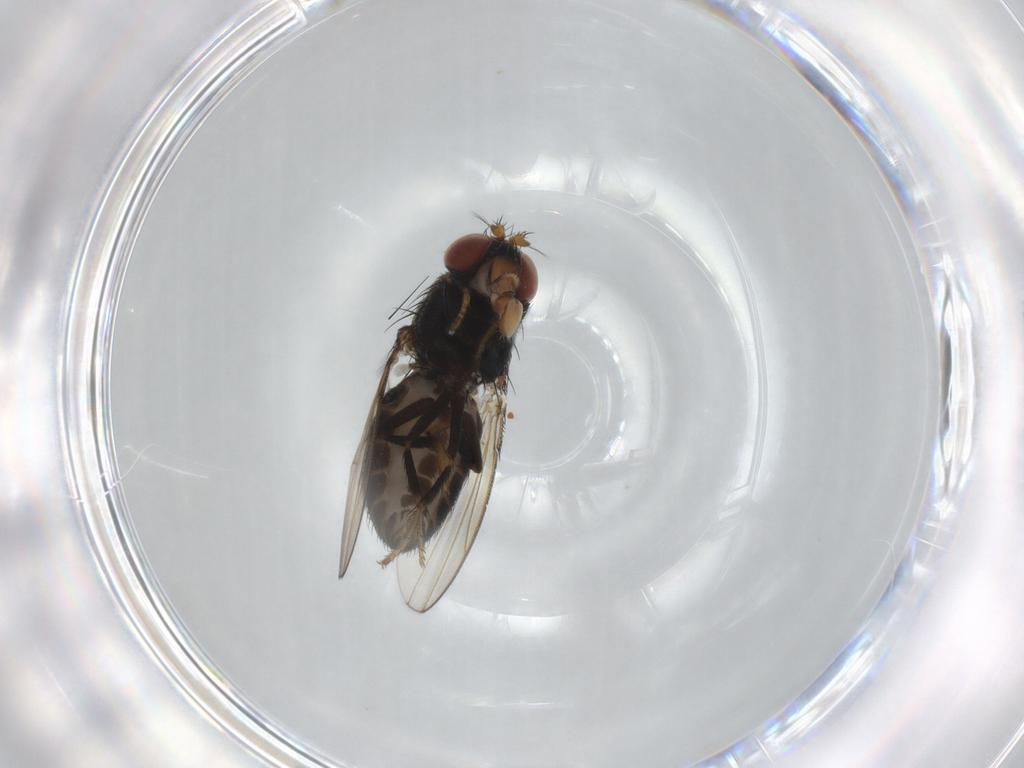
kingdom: Animalia
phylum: Arthropoda
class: Insecta
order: Diptera
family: Ephydridae
